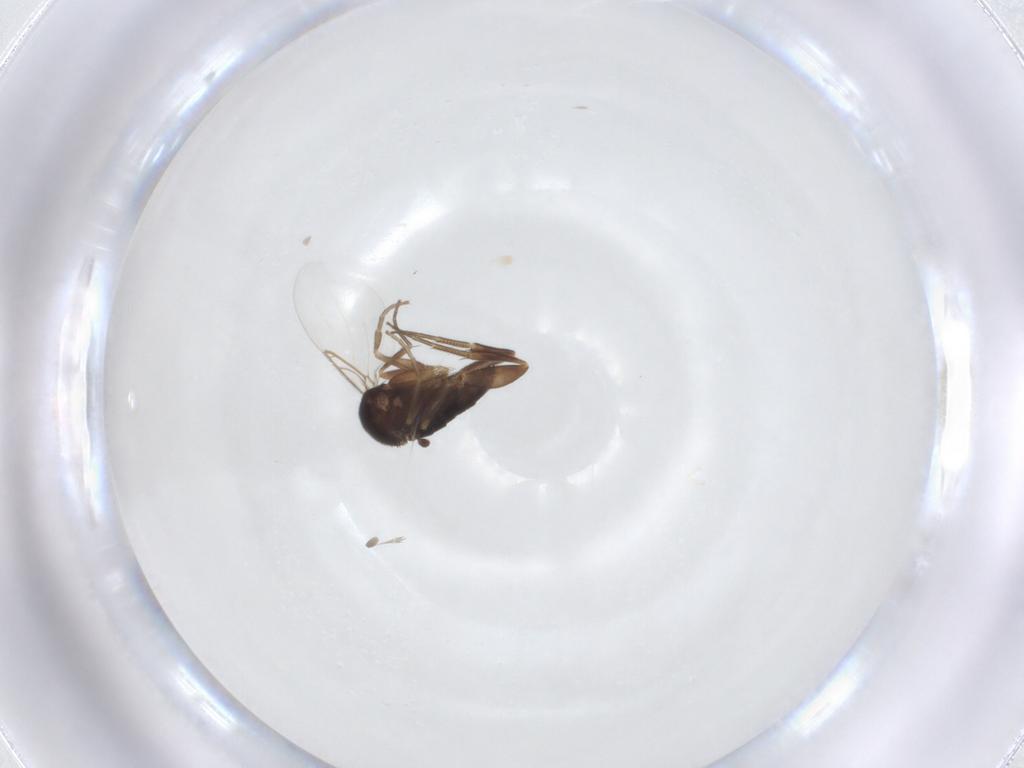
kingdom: Animalia
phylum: Arthropoda
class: Insecta
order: Diptera
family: Phoridae
